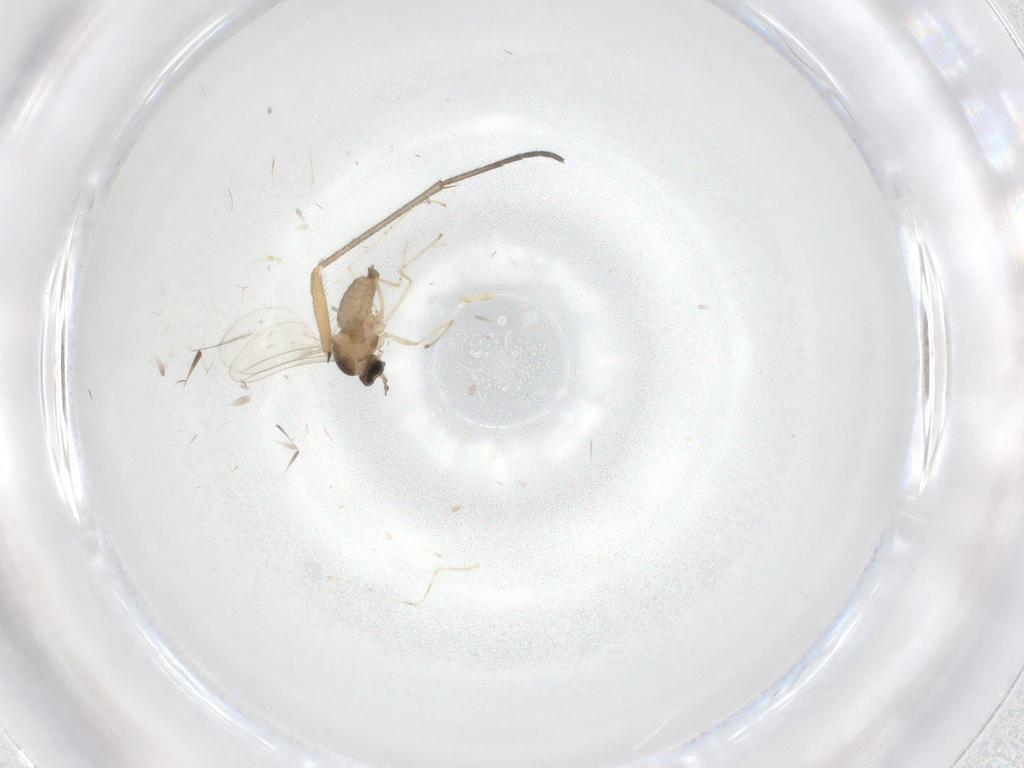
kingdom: Animalia
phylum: Arthropoda
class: Insecta
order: Diptera
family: Cecidomyiidae
